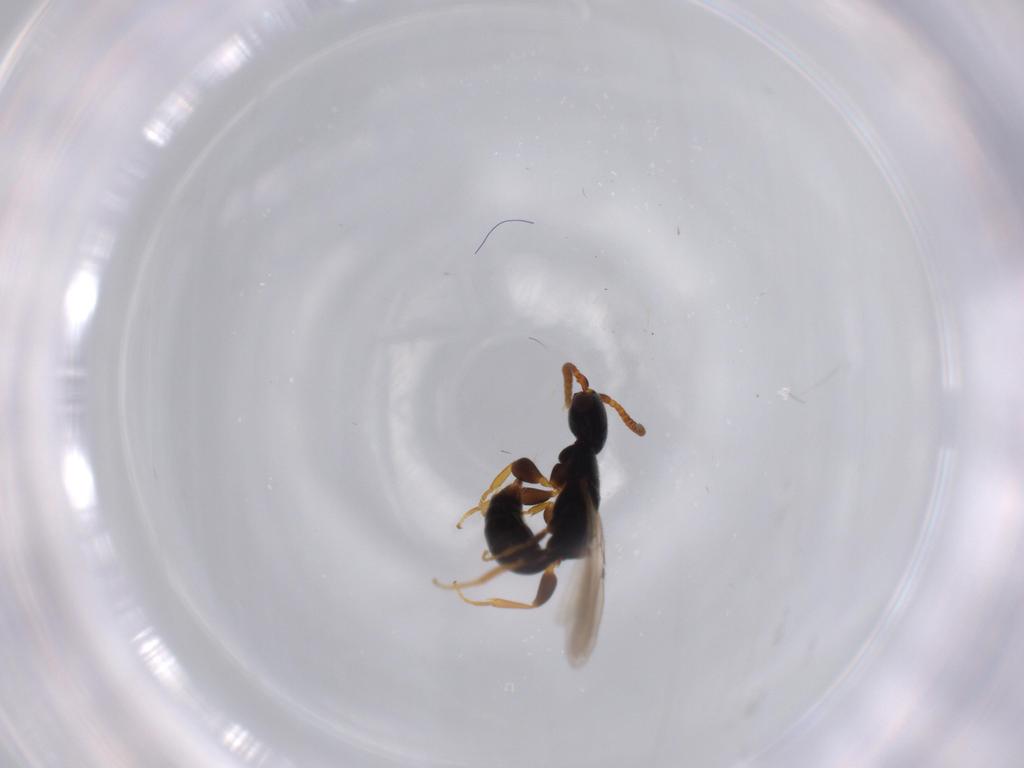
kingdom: Animalia
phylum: Arthropoda
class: Insecta
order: Hymenoptera
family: Bethylidae
